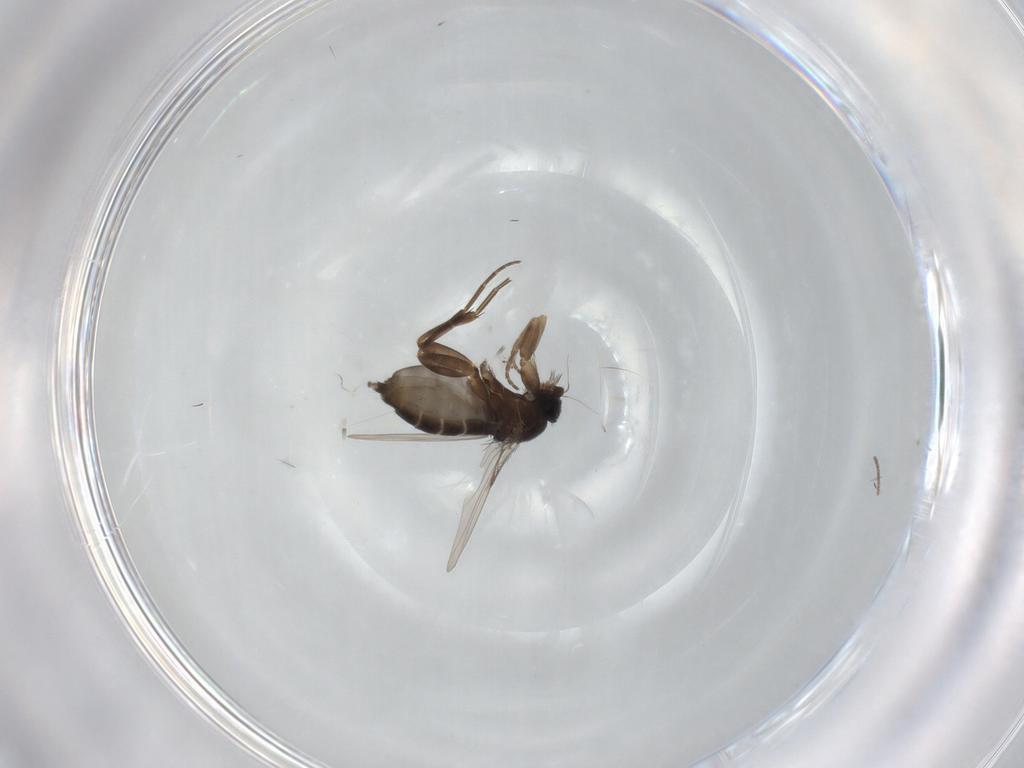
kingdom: Animalia
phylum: Arthropoda
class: Insecta
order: Diptera
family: Phoridae
